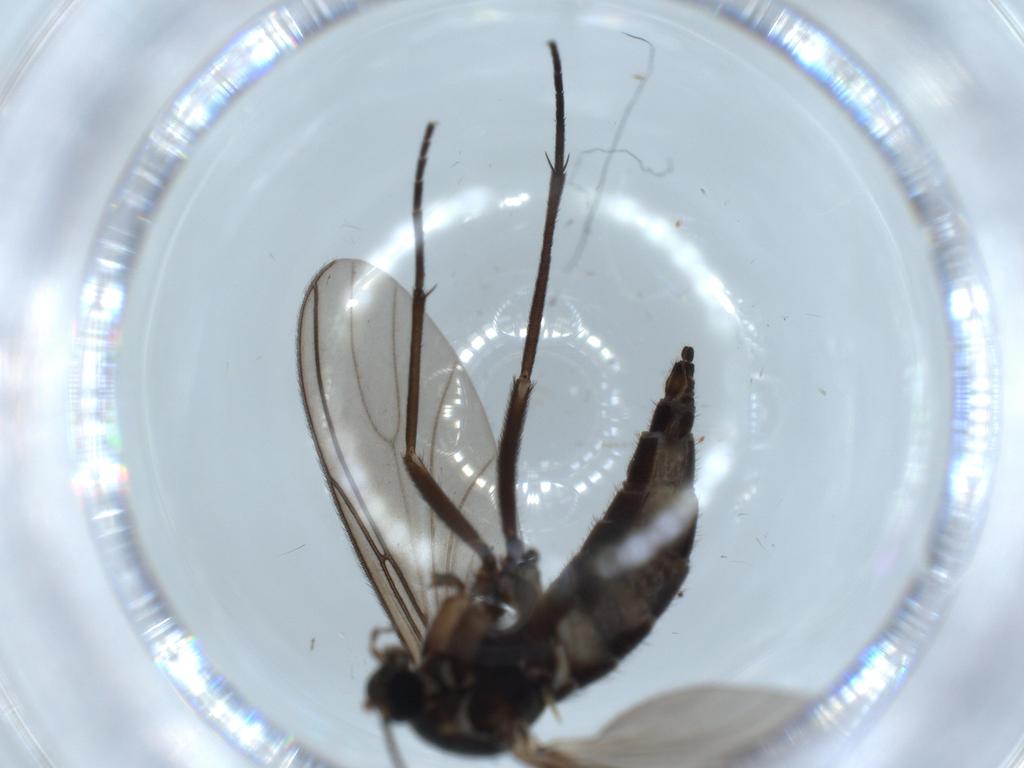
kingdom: Animalia
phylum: Arthropoda
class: Insecta
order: Diptera
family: Sciaridae
